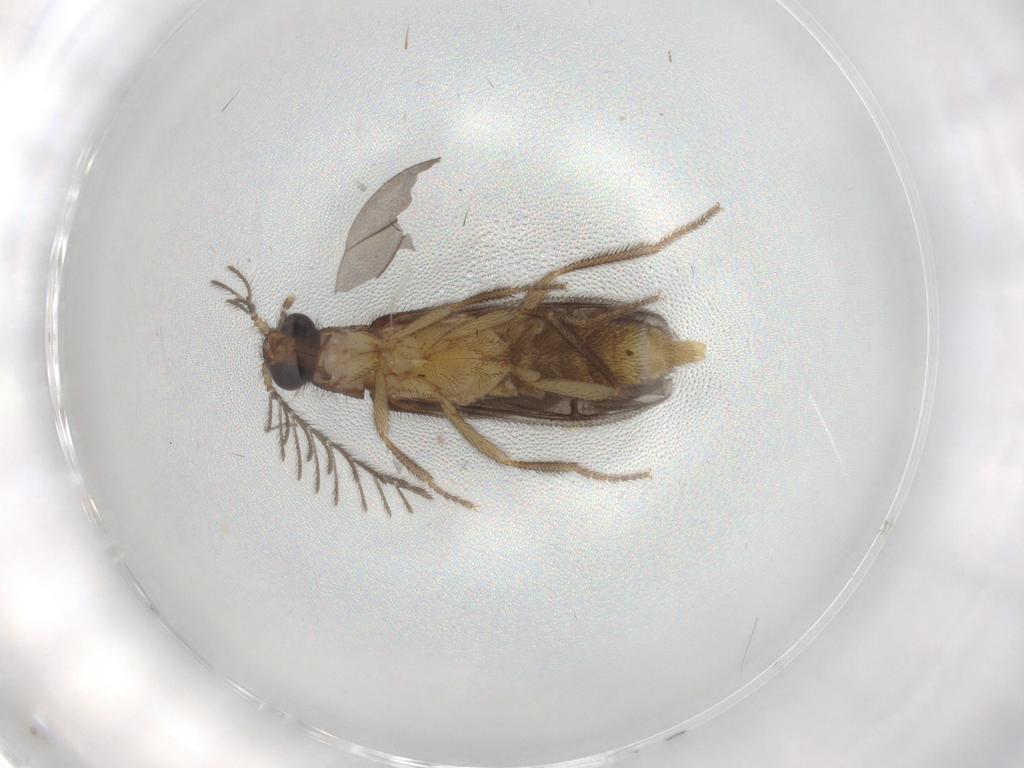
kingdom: Animalia
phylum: Arthropoda
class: Insecta
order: Coleoptera
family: Phengodidae
